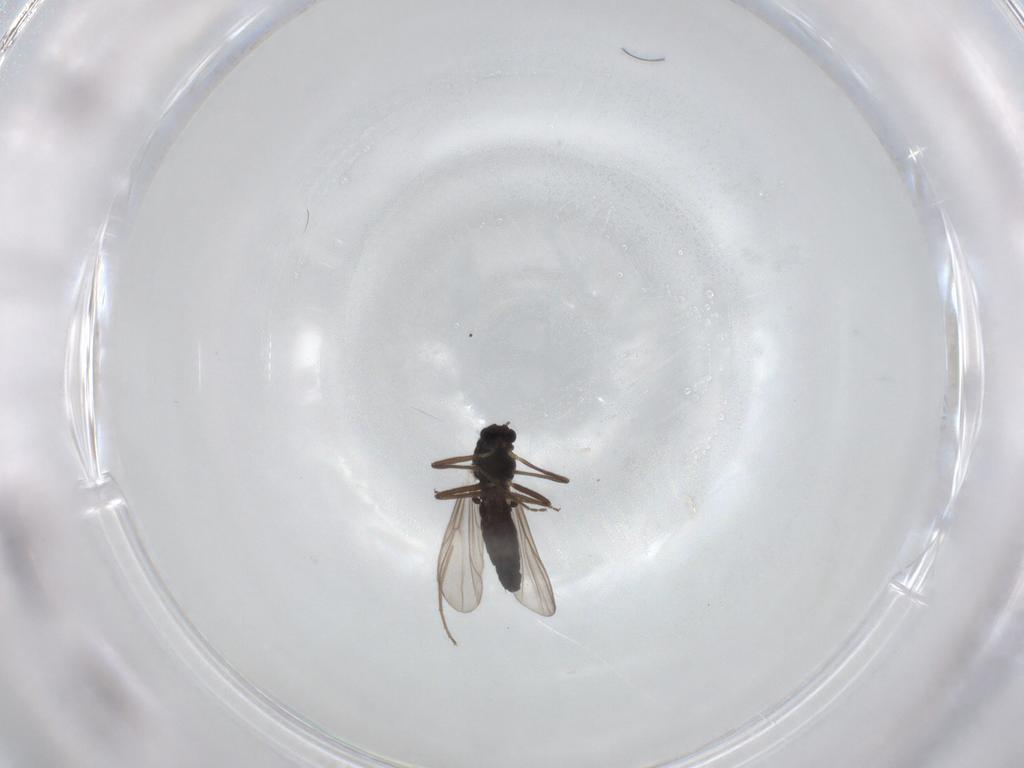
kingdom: Animalia
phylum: Arthropoda
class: Insecta
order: Diptera
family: Chironomidae
